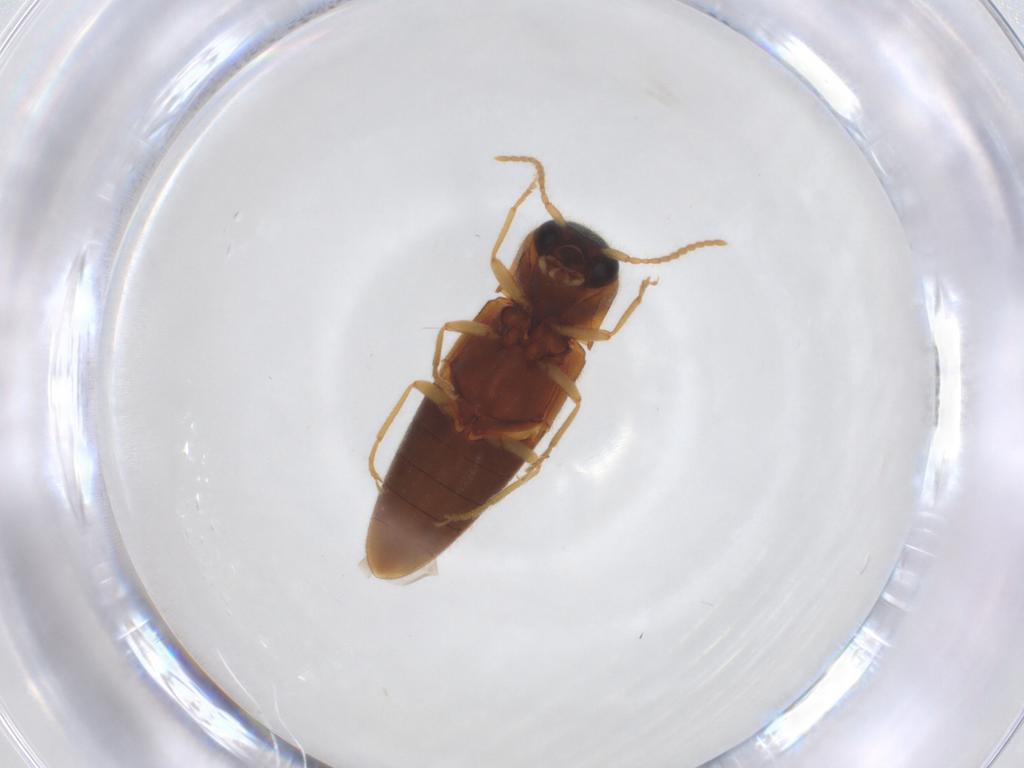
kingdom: Animalia
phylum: Arthropoda
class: Insecta
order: Coleoptera
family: Elateridae
